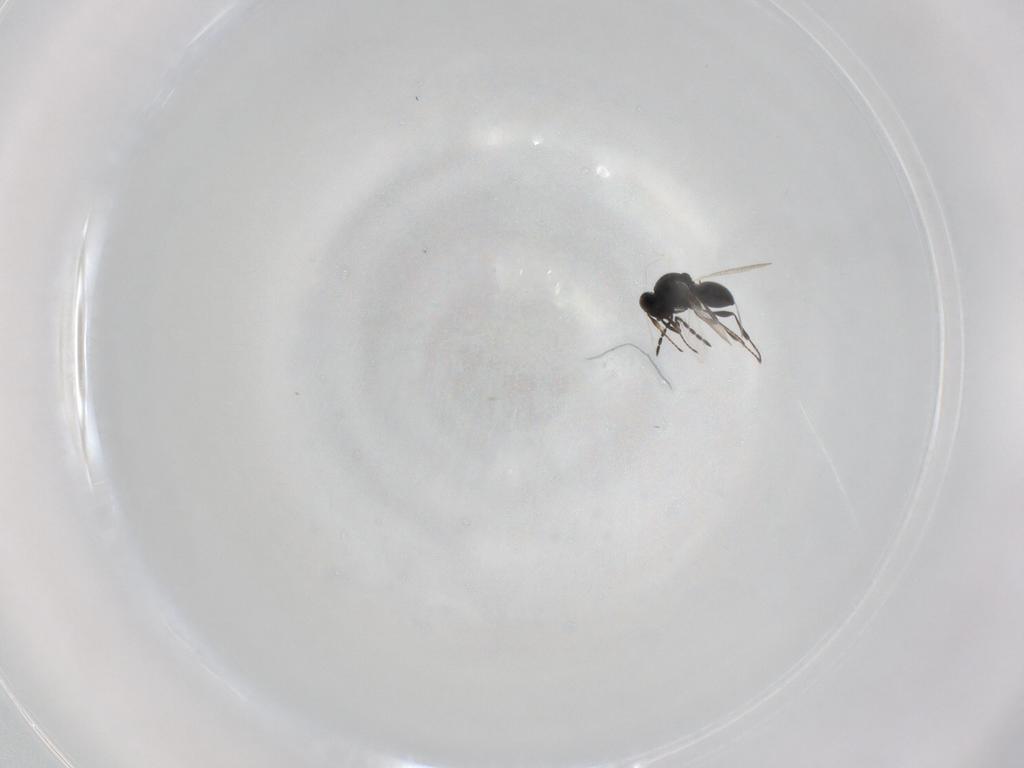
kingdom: Animalia
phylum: Arthropoda
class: Insecta
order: Hymenoptera
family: Platygastridae
